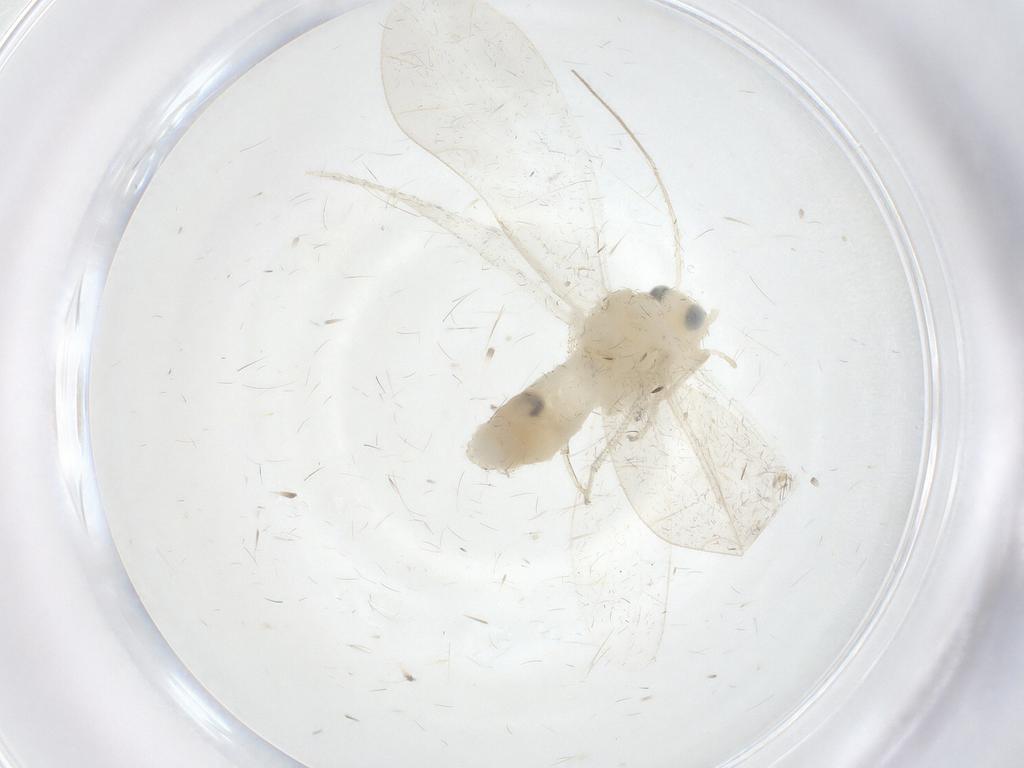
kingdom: Animalia
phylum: Arthropoda
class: Insecta
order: Psocodea
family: Caeciliusidae
